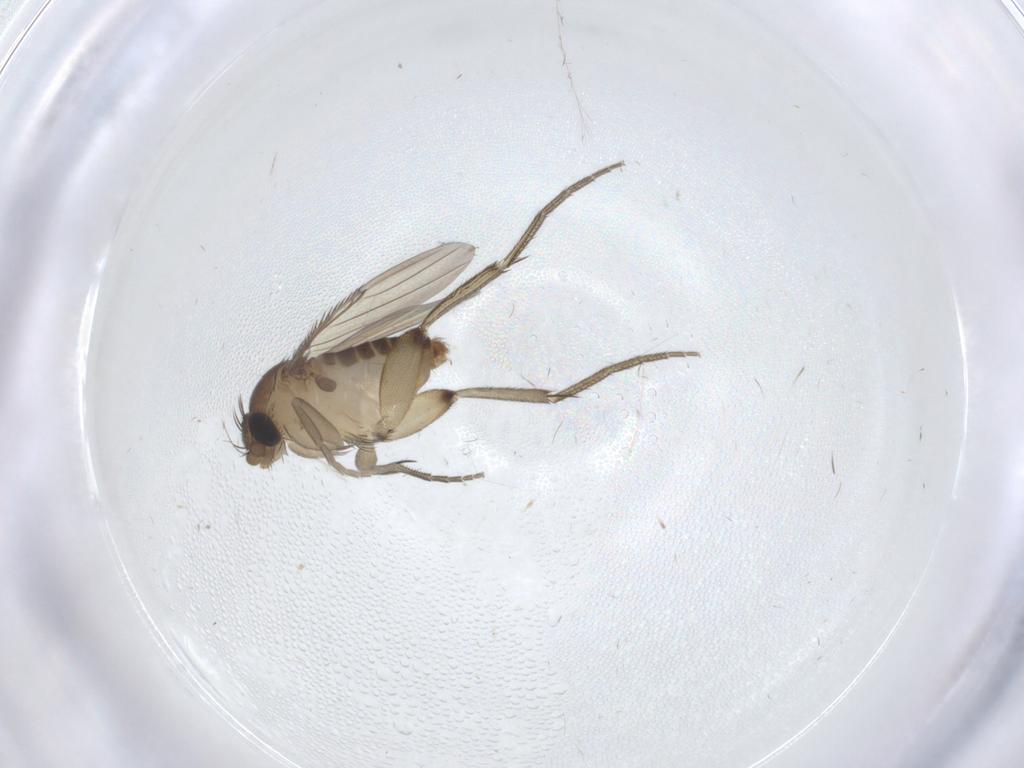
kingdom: Animalia
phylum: Arthropoda
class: Insecta
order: Diptera
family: Phoridae
